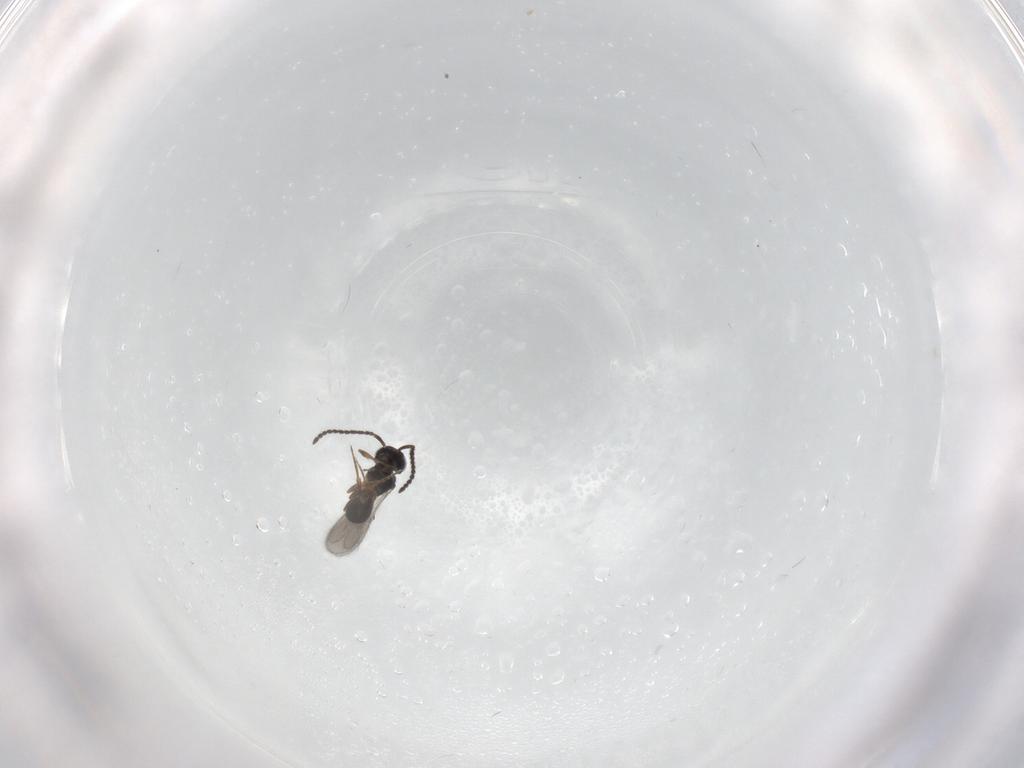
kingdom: Animalia
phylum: Arthropoda
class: Insecta
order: Hymenoptera
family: Scelionidae
